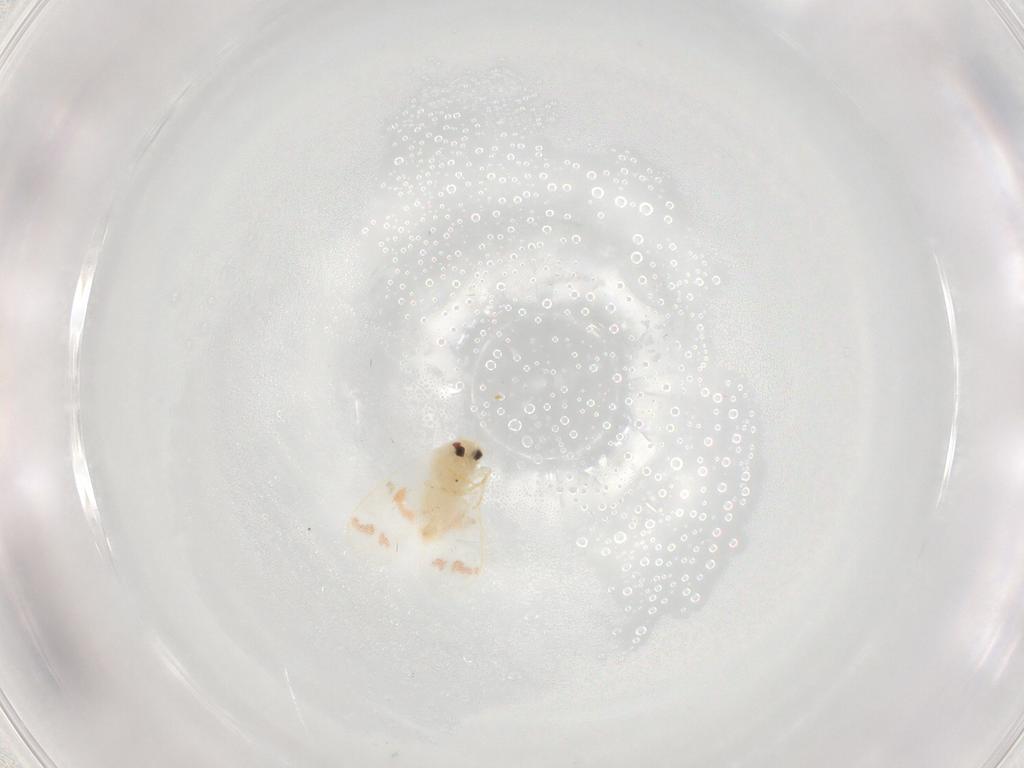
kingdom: Animalia
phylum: Arthropoda
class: Insecta
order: Hemiptera
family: Aleyrodidae
